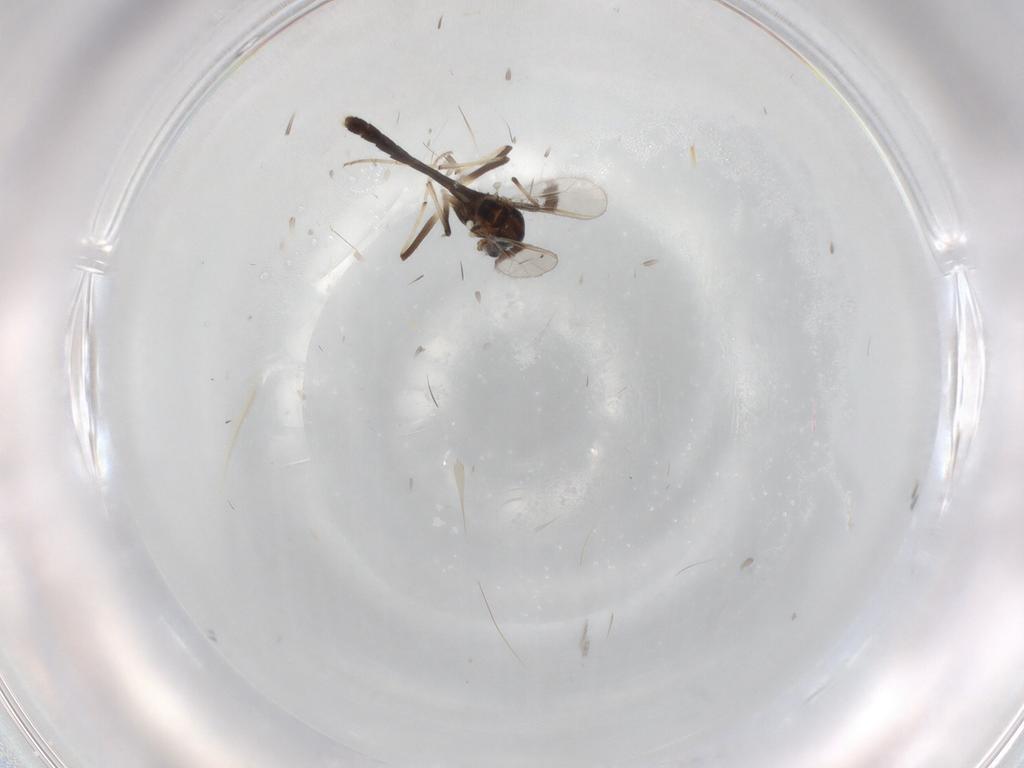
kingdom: Animalia
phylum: Arthropoda
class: Insecta
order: Diptera
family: Chironomidae
